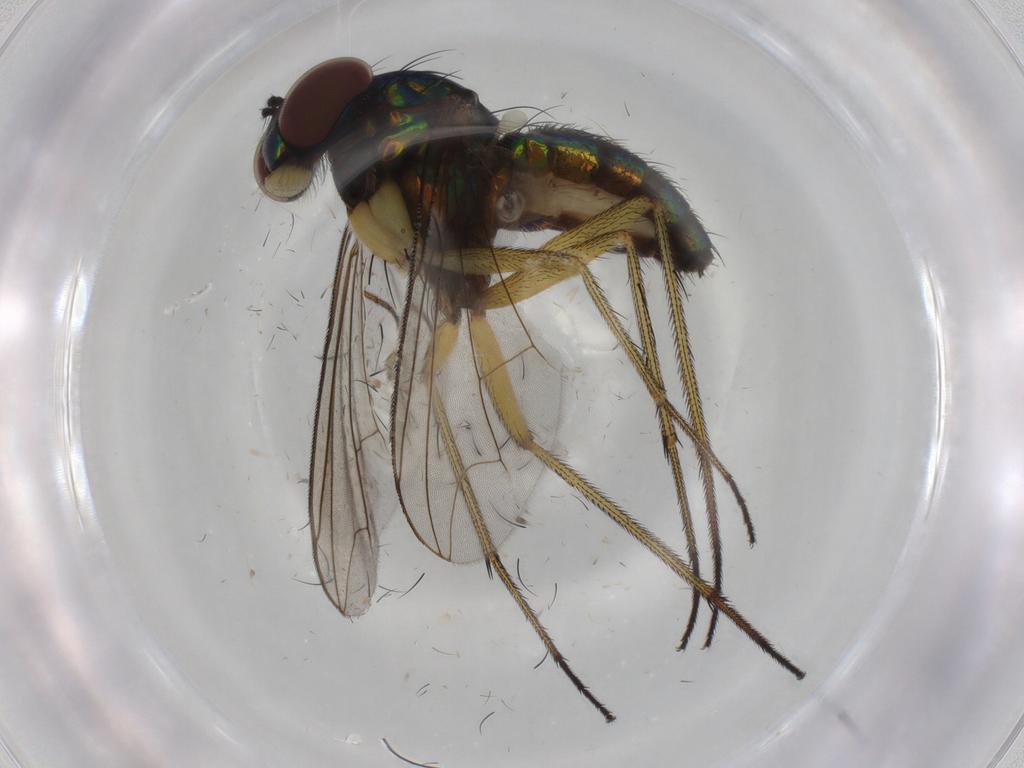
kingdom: Animalia
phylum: Arthropoda
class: Insecta
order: Diptera
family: Dolichopodidae
